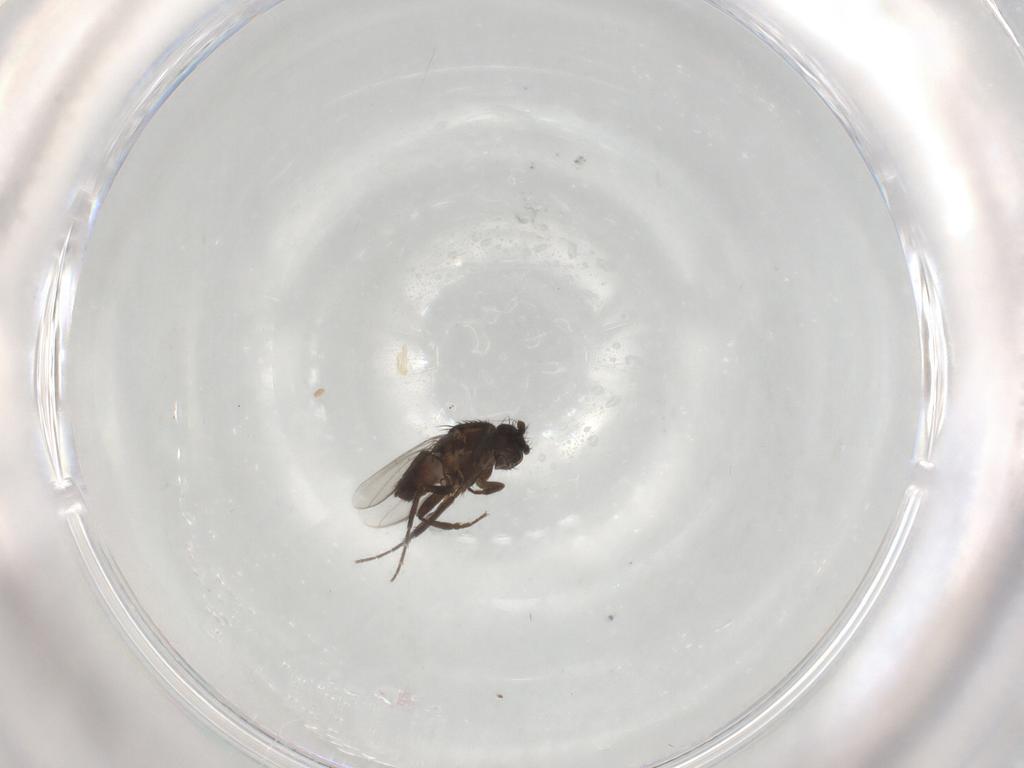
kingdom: Animalia
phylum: Arthropoda
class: Insecta
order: Diptera
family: Sphaeroceridae
